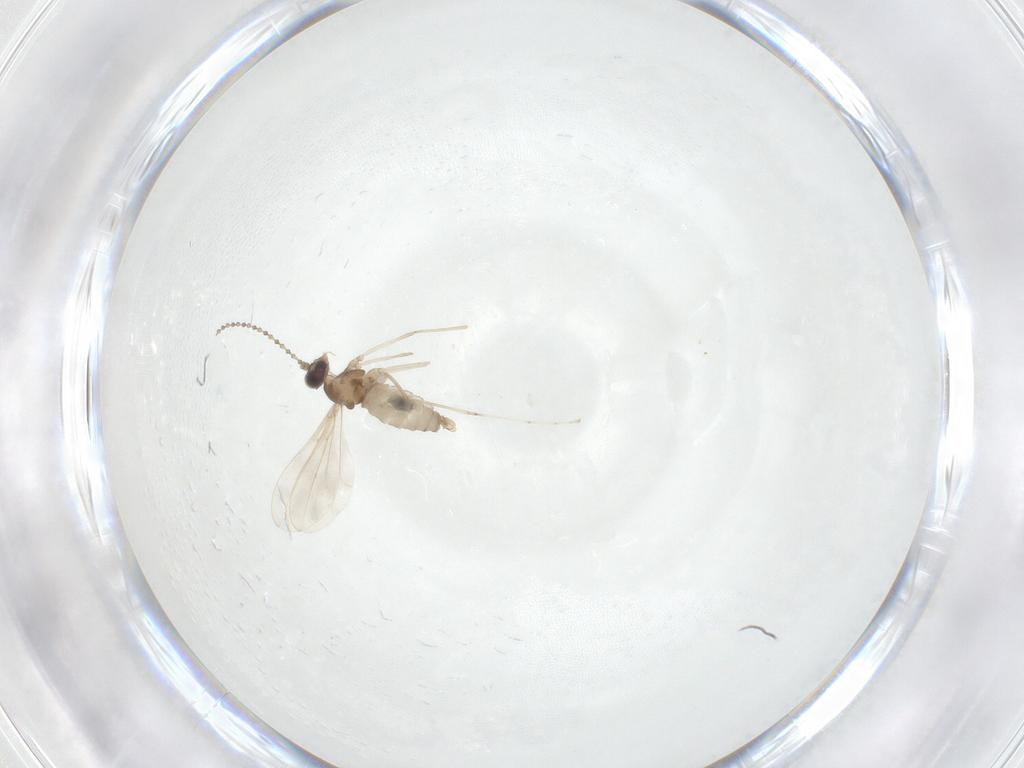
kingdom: Animalia
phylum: Arthropoda
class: Insecta
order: Diptera
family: Cecidomyiidae
